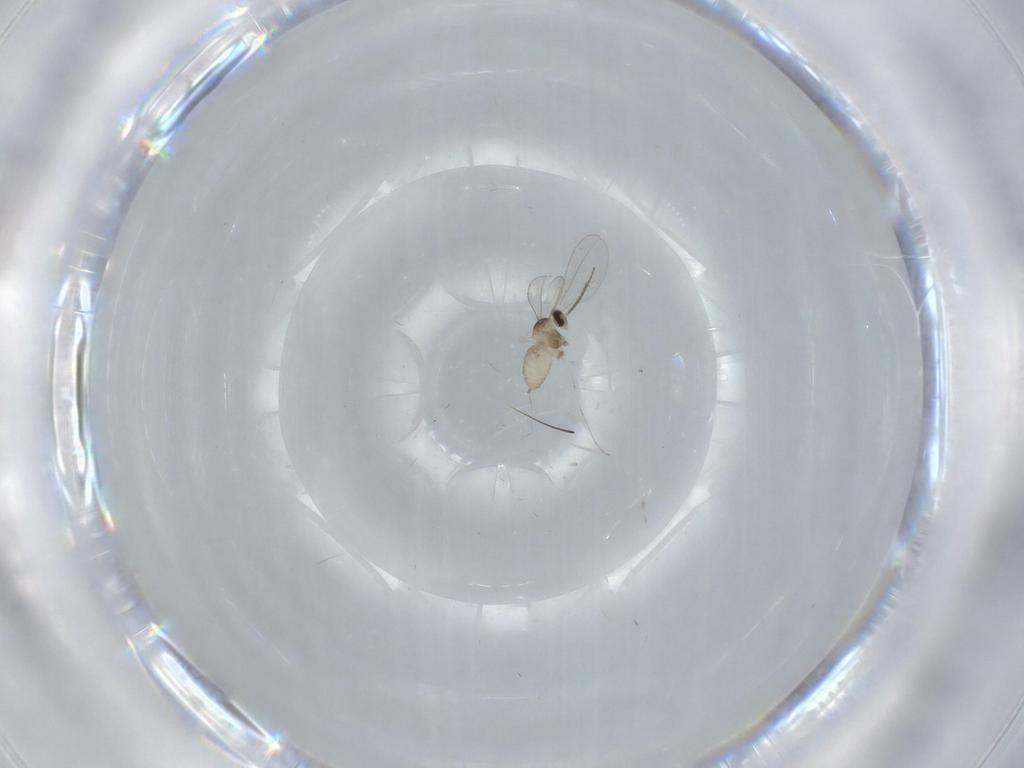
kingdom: Animalia
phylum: Arthropoda
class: Insecta
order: Diptera
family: Cecidomyiidae
